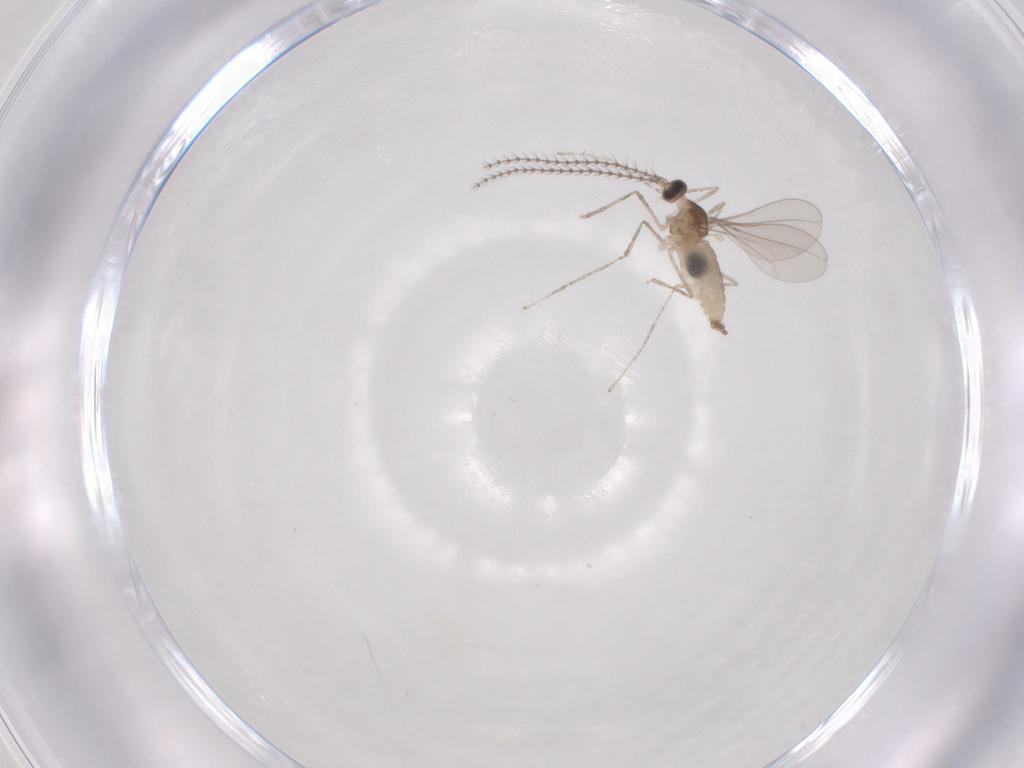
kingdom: Animalia
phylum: Arthropoda
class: Insecta
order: Diptera
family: Cecidomyiidae
